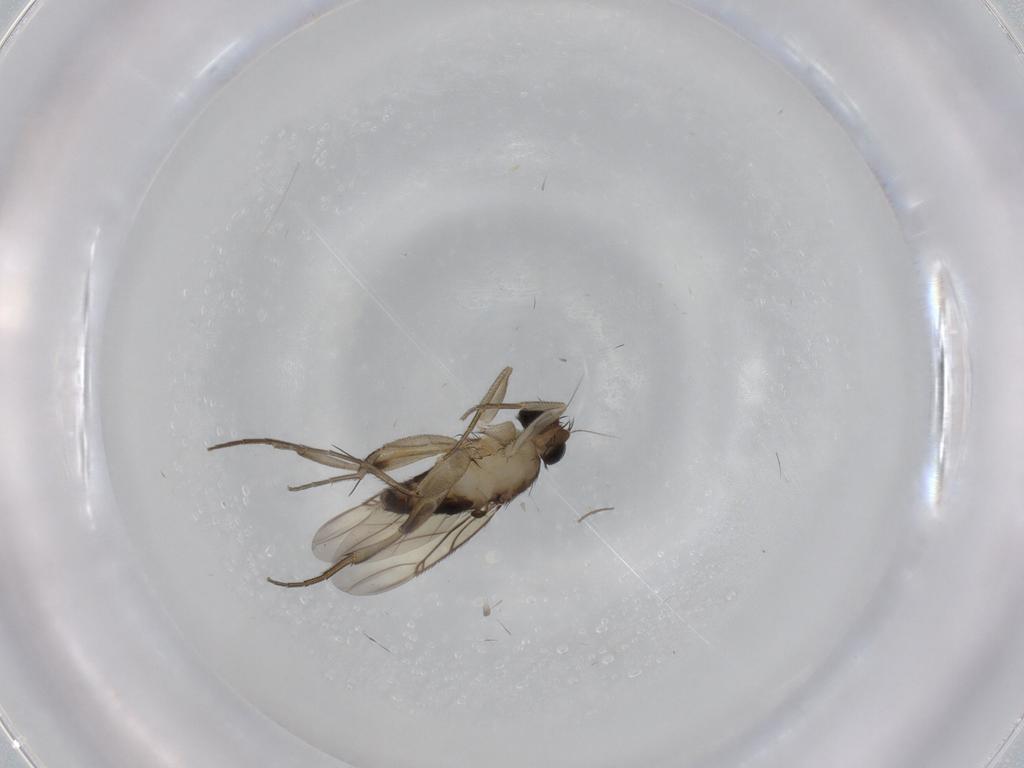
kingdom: Animalia
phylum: Arthropoda
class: Insecta
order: Diptera
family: Phoridae
